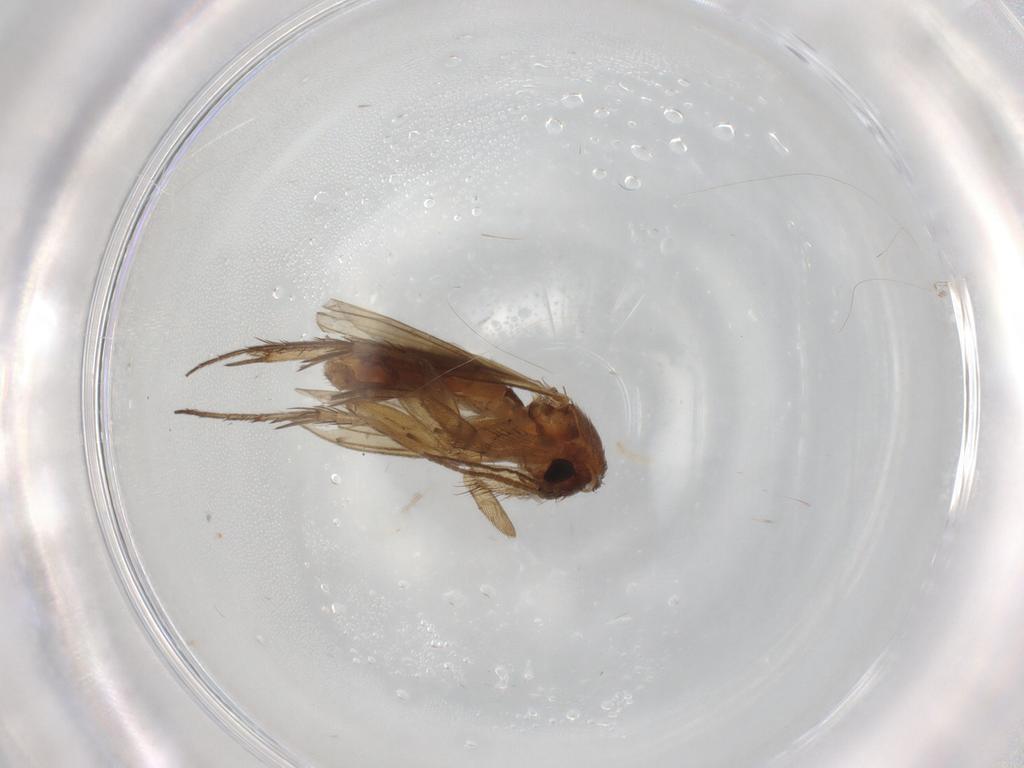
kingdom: Animalia
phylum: Arthropoda
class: Insecta
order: Diptera
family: Mycetophilidae
